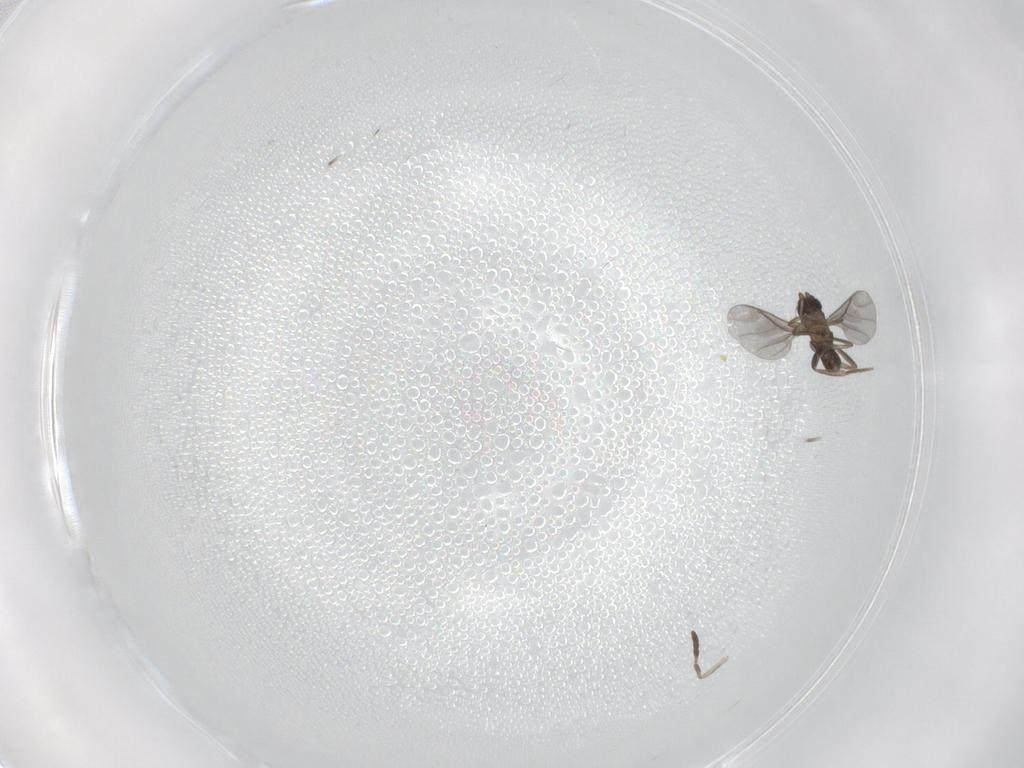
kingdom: Animalia
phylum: Arthropoda
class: Insecta
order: Diptera
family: Phoridae
